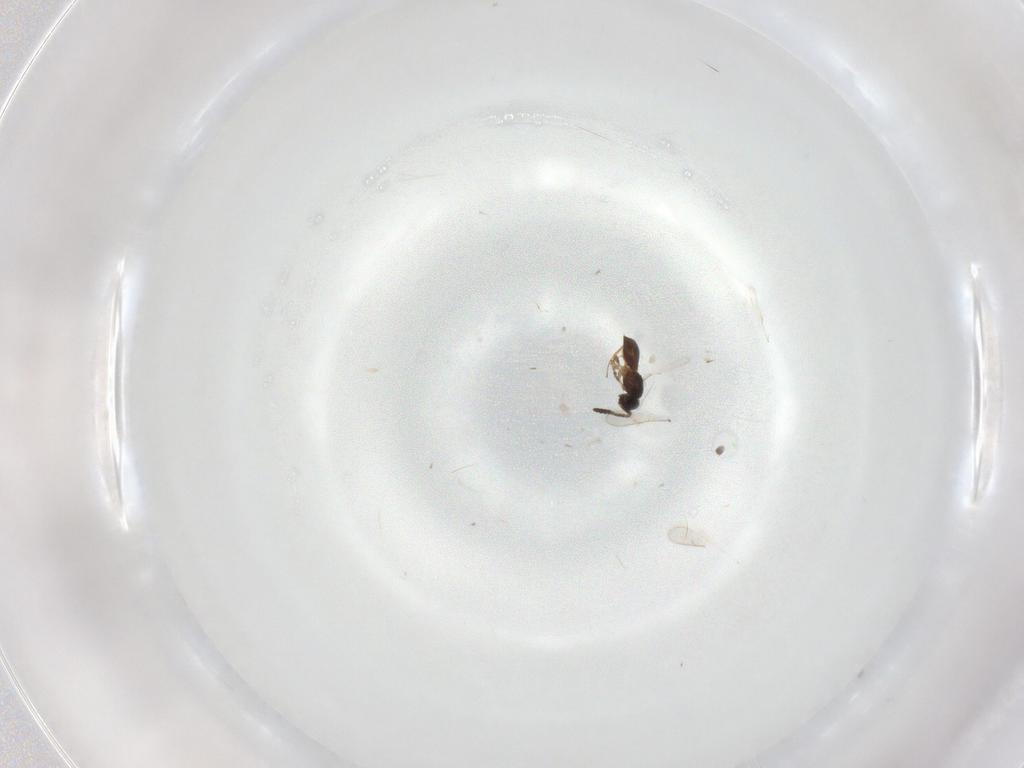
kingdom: Animalia
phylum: Arthropoda
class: Insecta
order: Hymenoptera
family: Scelionidae
